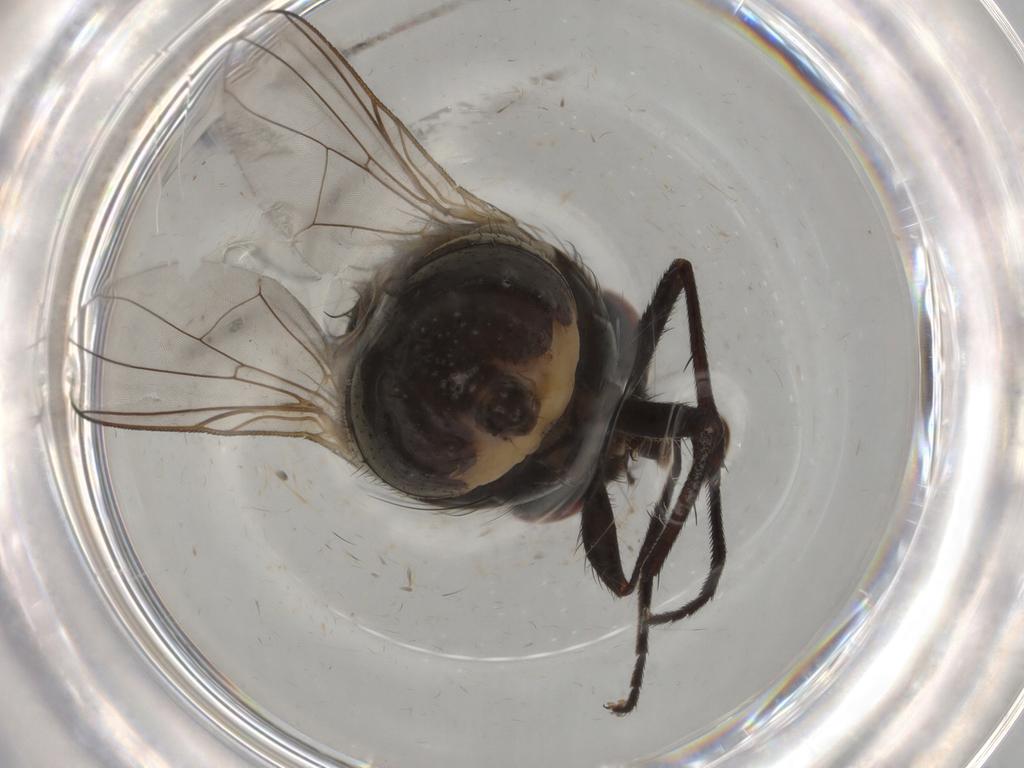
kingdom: Animalia
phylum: Arthropoda
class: Insecta
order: Diptera
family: Muscidae
